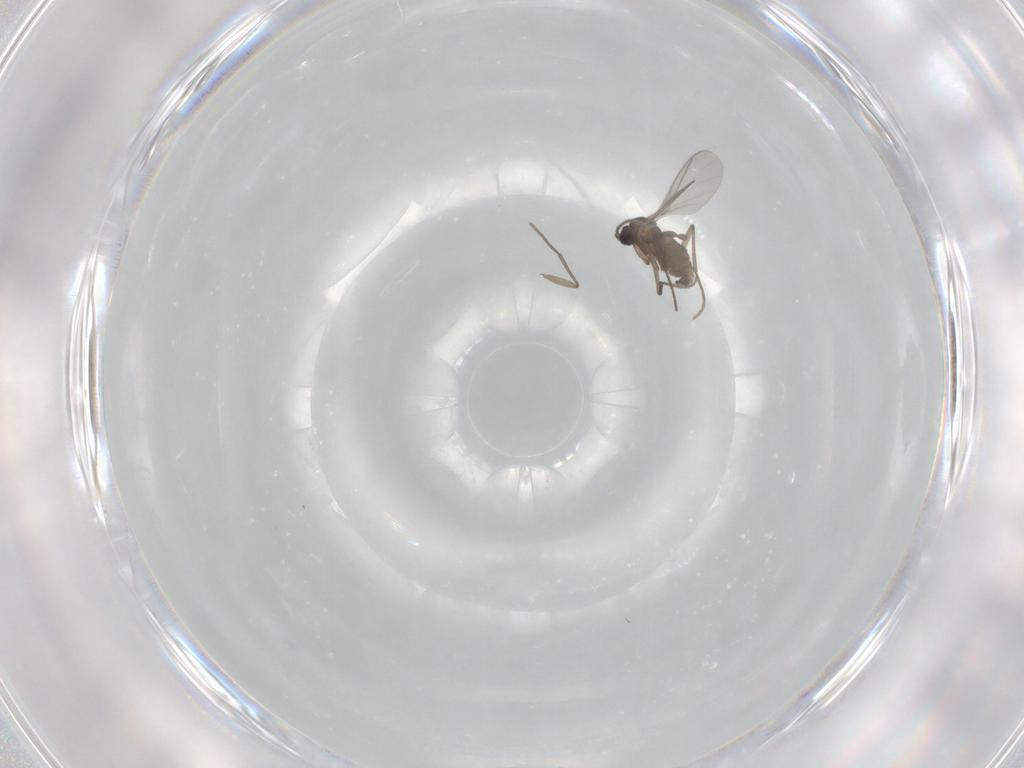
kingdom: Animalia
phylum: Arthropoda
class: Insecta
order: Diptera
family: Sciaridae
